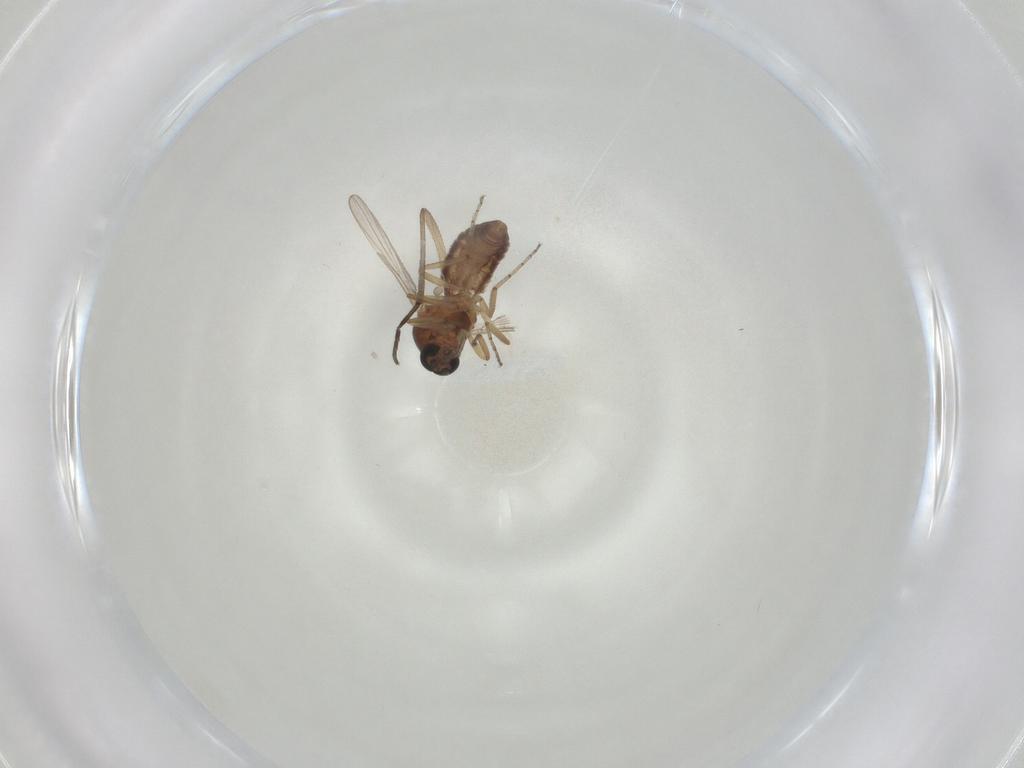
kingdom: Animalia
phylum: Arthropoda
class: Insecta
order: Diptera
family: Ceratopogonidae
